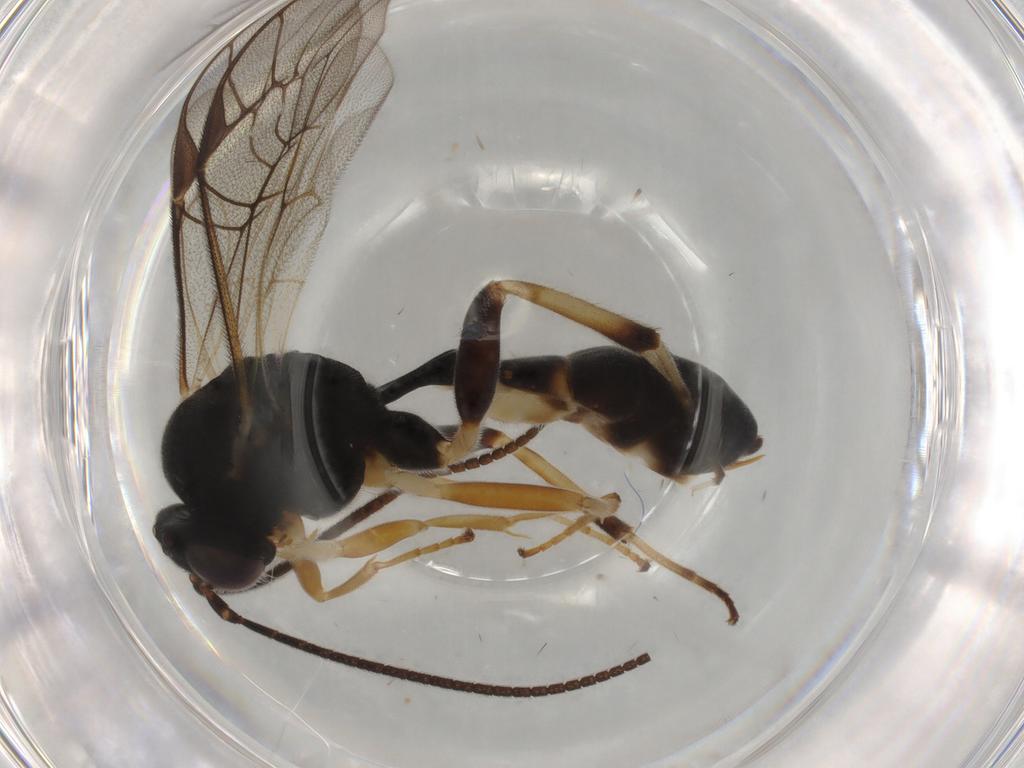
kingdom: Animalia
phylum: Arthropoda
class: Insecta
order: Hymenoptera
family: Ichneumonidae
